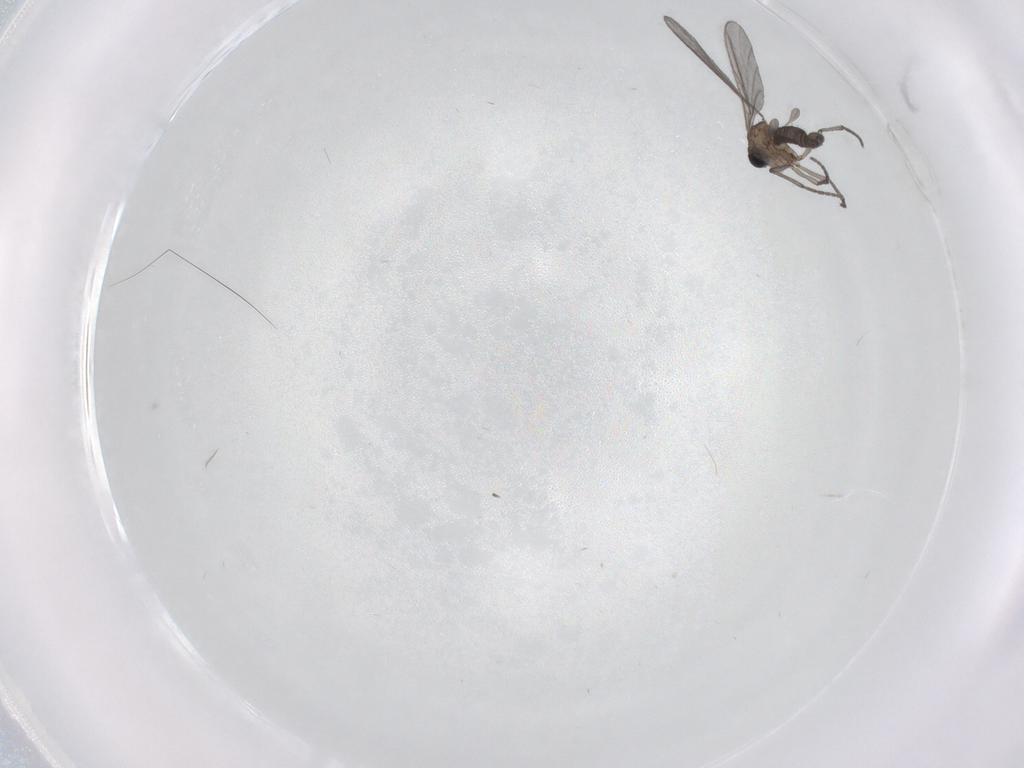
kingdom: Animalia
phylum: Arthropoda
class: Insecta
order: Diptera
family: Sciaridae
